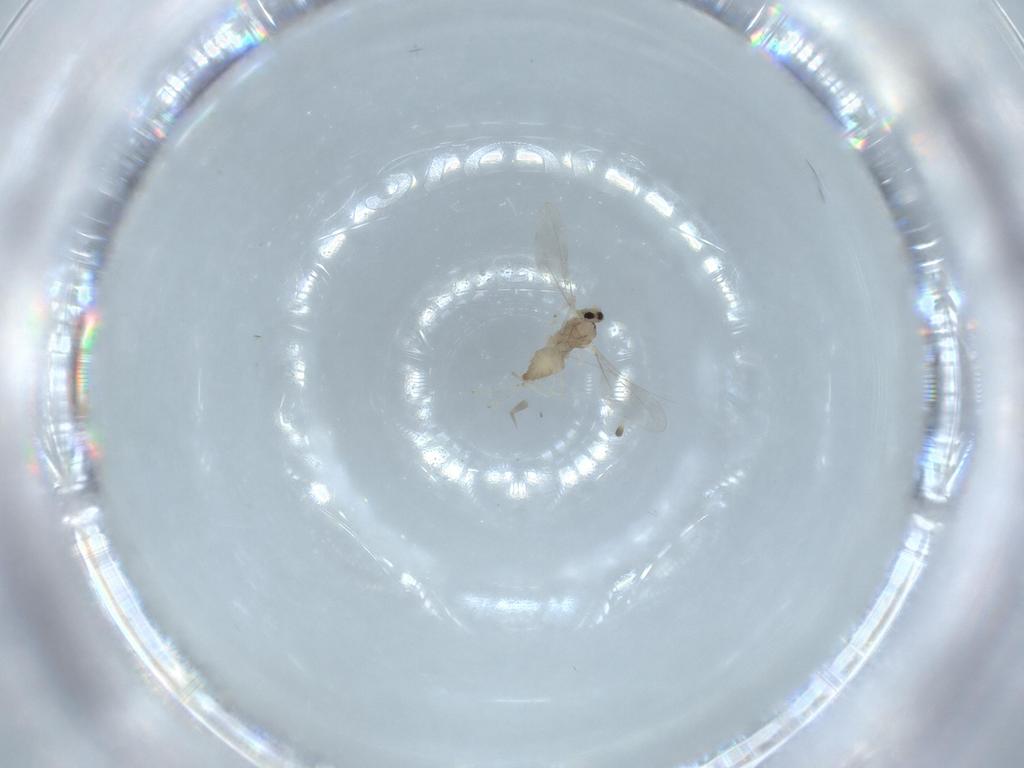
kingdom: Animalia
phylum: Arthropoda
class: Insecta
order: Diptera
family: Cecidomyiidae
